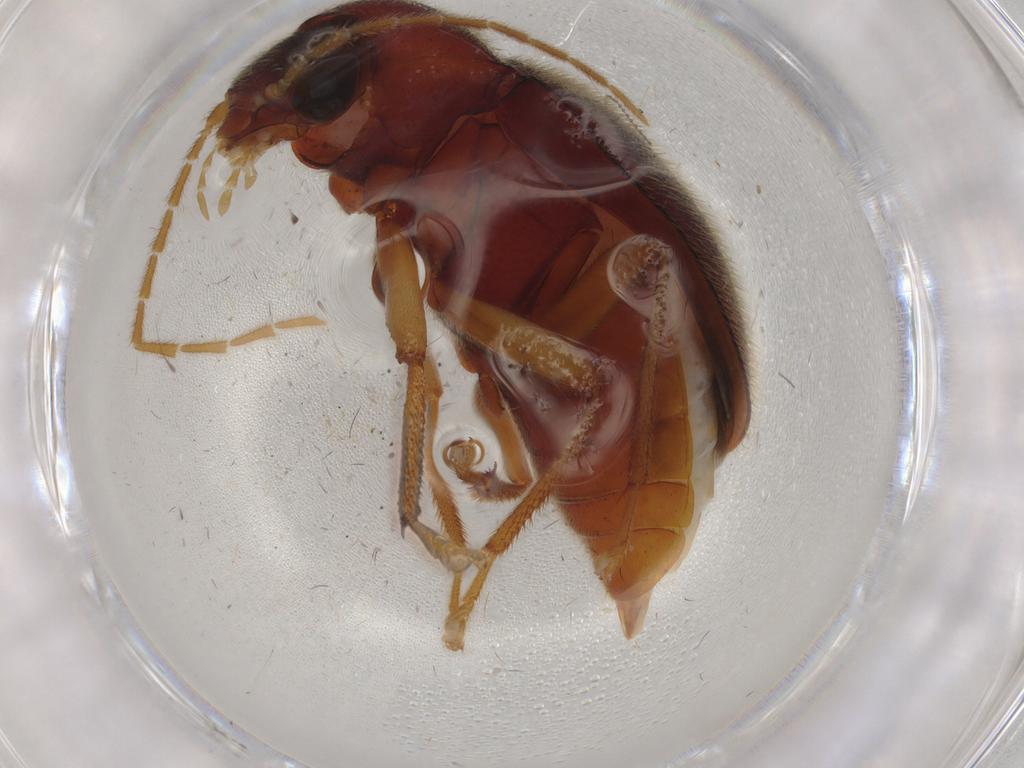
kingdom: Animalia
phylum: Arthropoda
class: Insecta
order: Coleoptera
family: Ptilodactylidae
